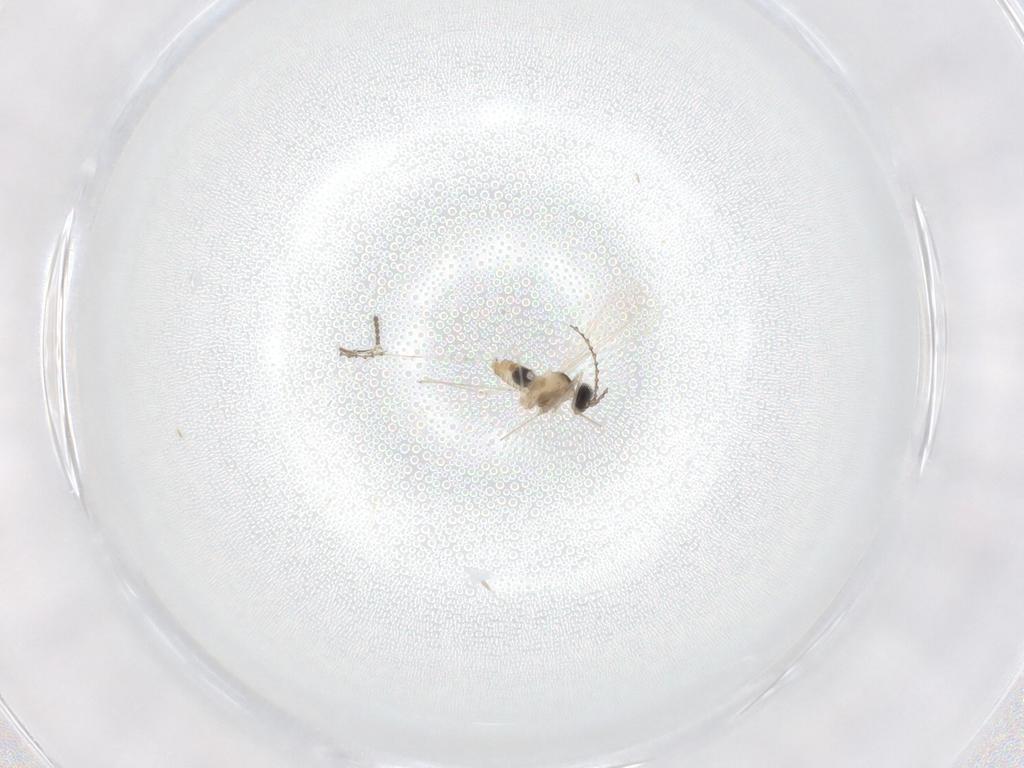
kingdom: Animalia
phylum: Arthropoda
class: Insecta
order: Diptera
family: Cecidomyiidae
